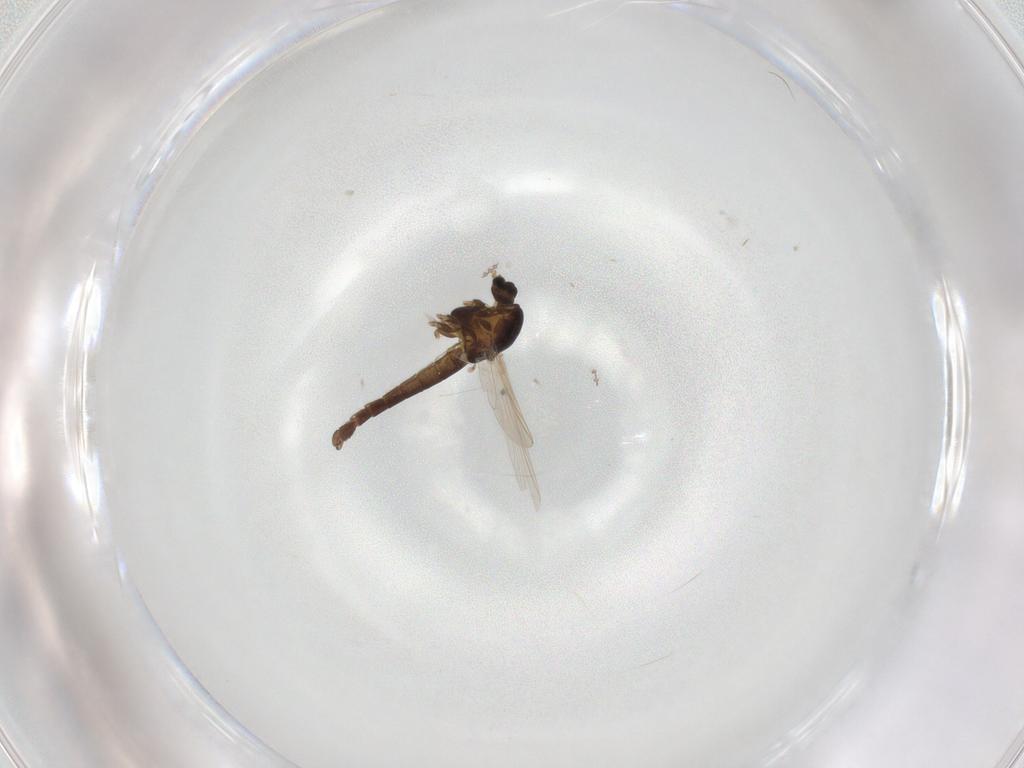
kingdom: Animalia
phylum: Arthropoda
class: Insecta
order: Diptera
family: Chironomidae
